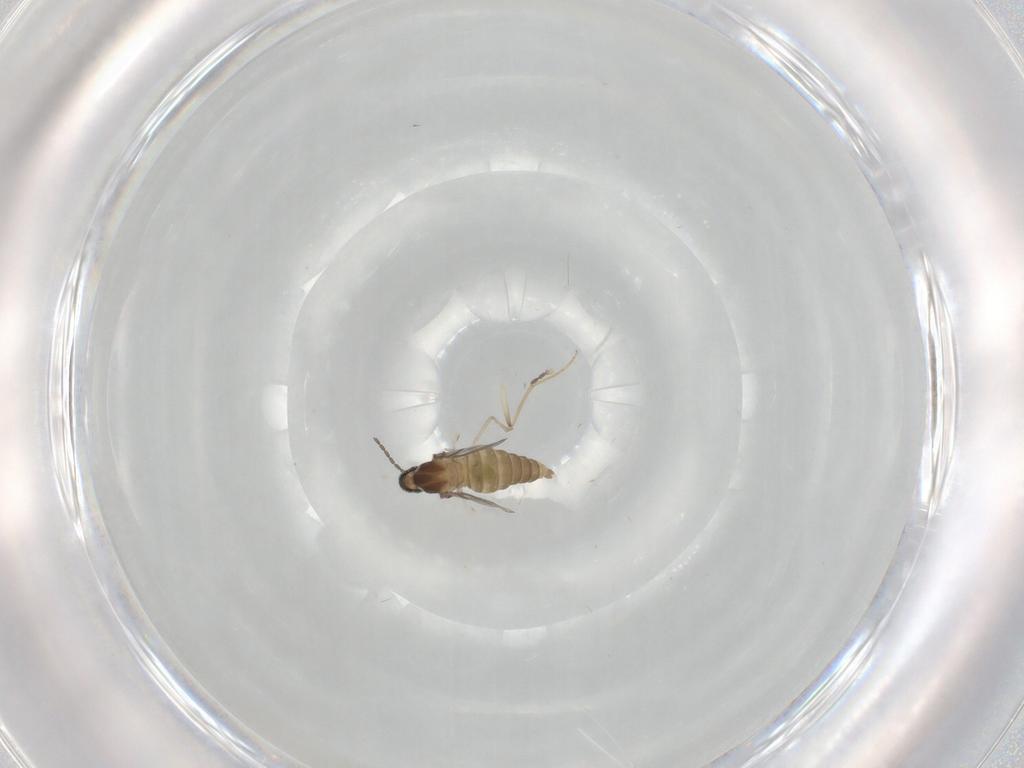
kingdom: Animalia
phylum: Arthropoda
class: Insecta
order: Diptera
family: Cecidomyiidae
